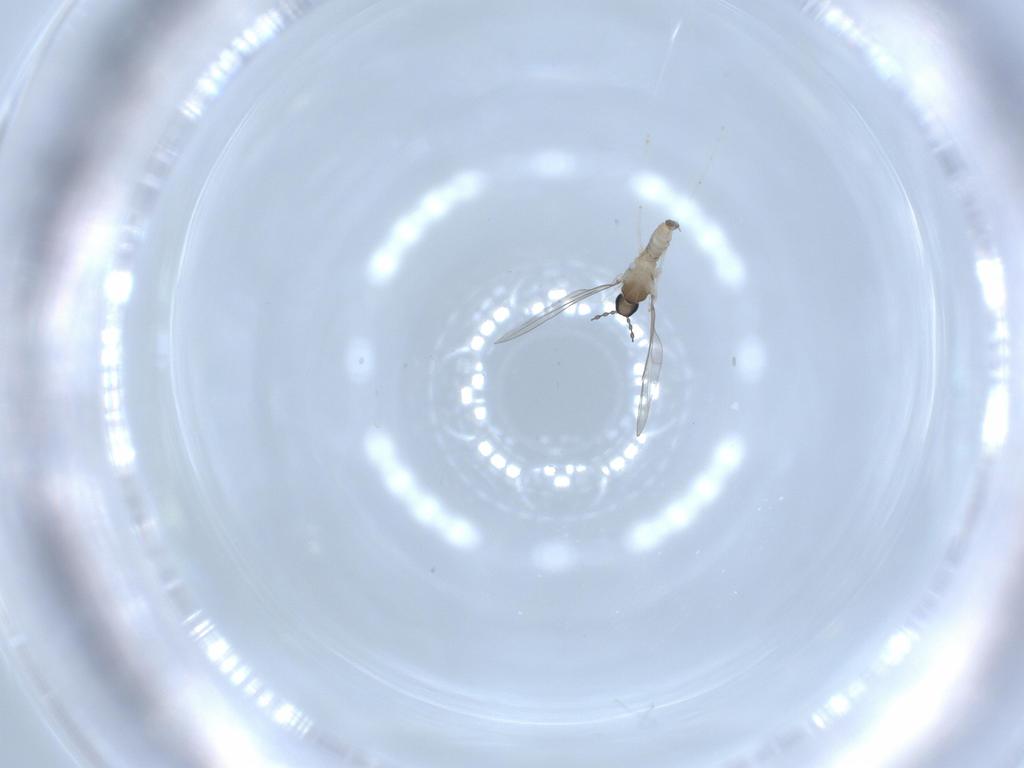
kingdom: Animalia
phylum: Arthropoda
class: Insecta
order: Diptera
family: Cecidomyiidae
